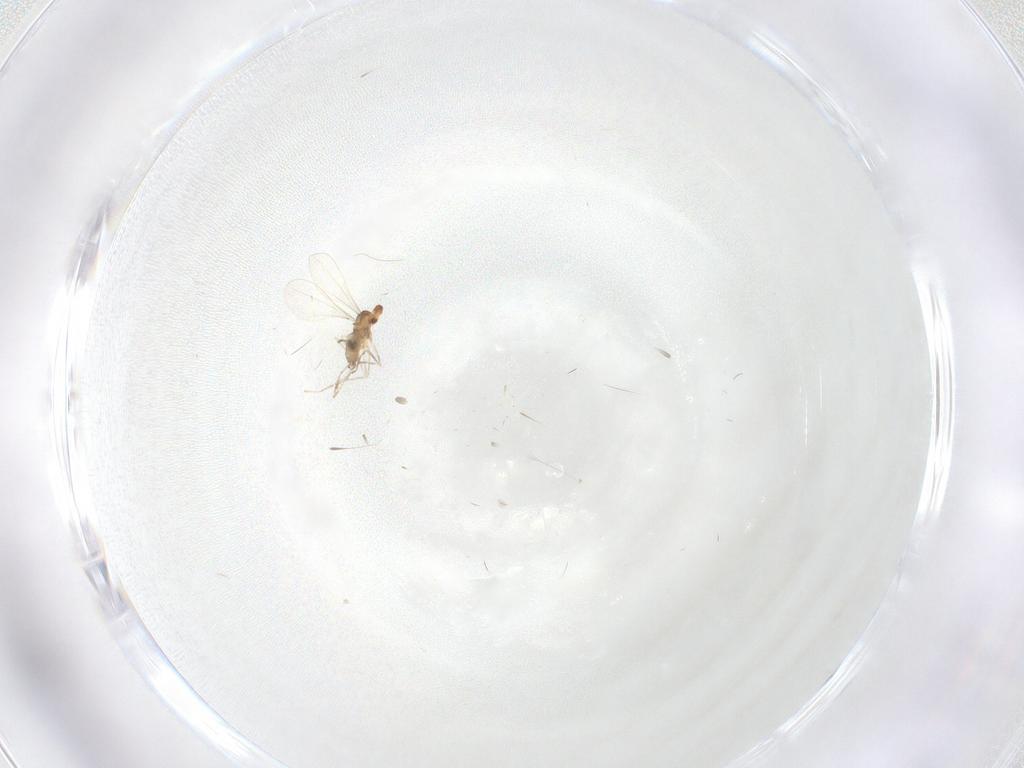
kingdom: Animalia
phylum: Arthropoda
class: Insecta
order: Diptera
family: Cecidomyiidae
